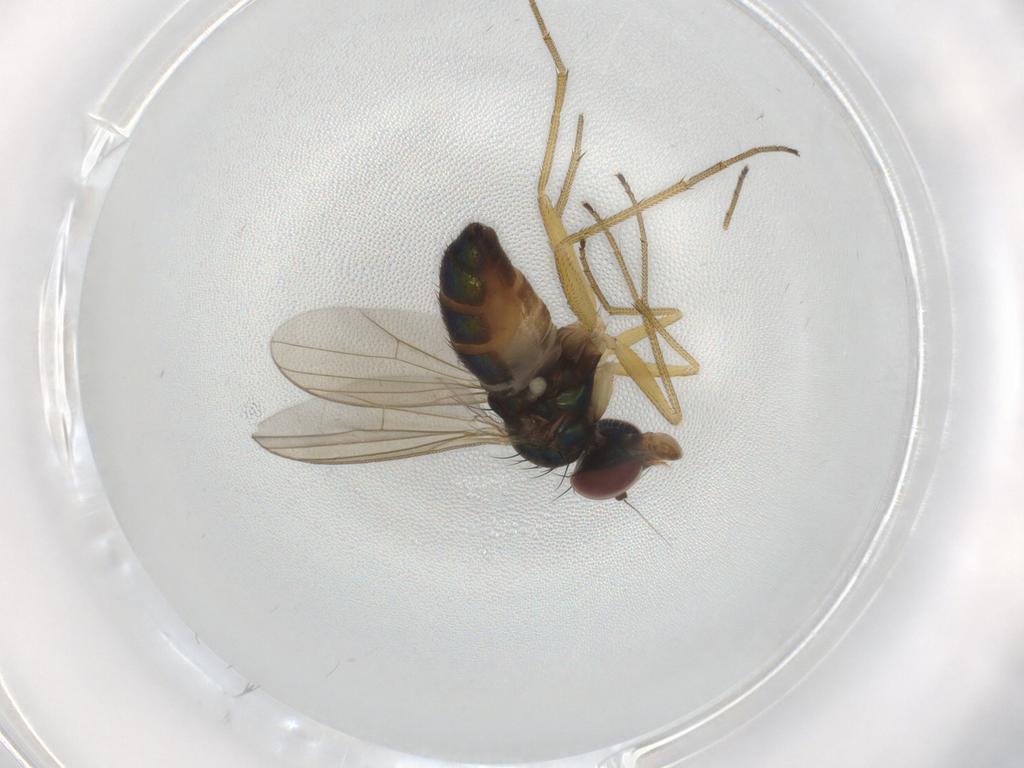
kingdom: Animalia
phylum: Arthropoda
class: Insecta
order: Diptera
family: Dolichopodidae
